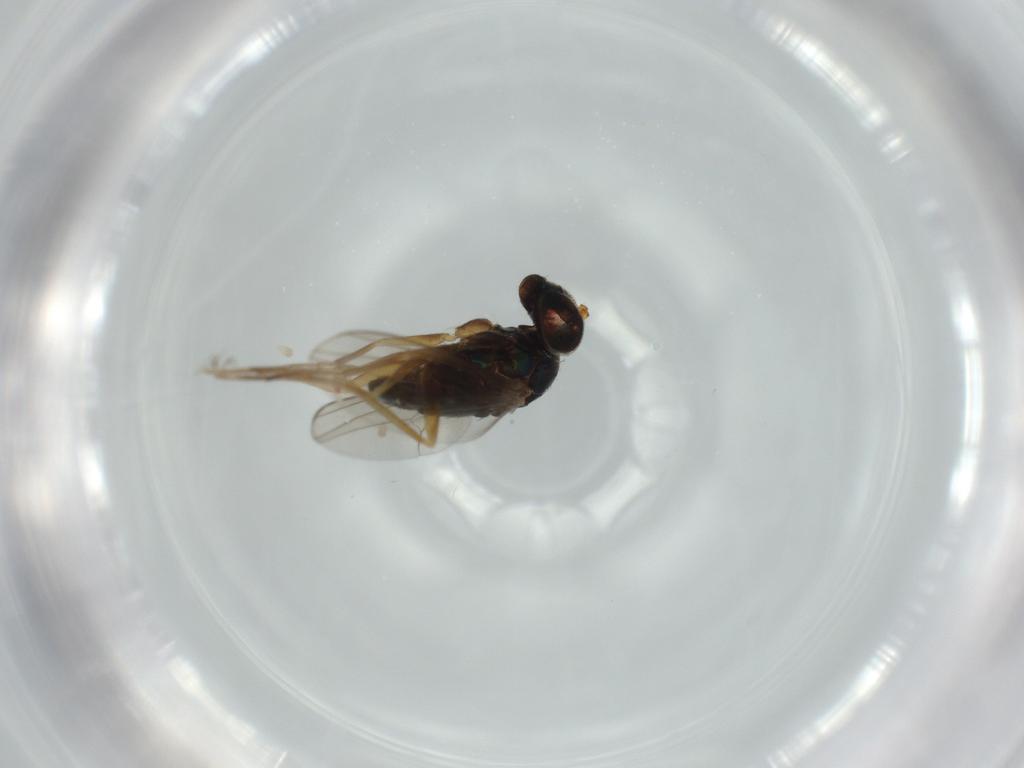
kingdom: Animalia
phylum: Arthropoda
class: Insecta
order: Diptera
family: Dolichopodidae
